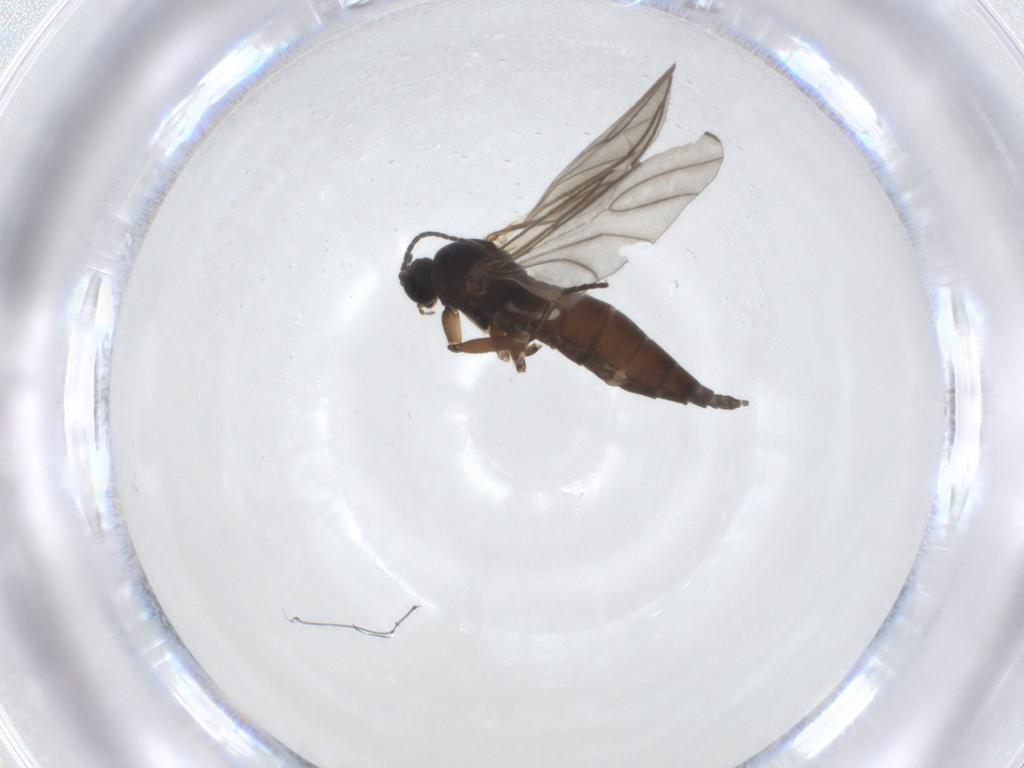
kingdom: Animalia
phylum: Arthropoda
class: Insecta
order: Diptera
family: Sciaridae
